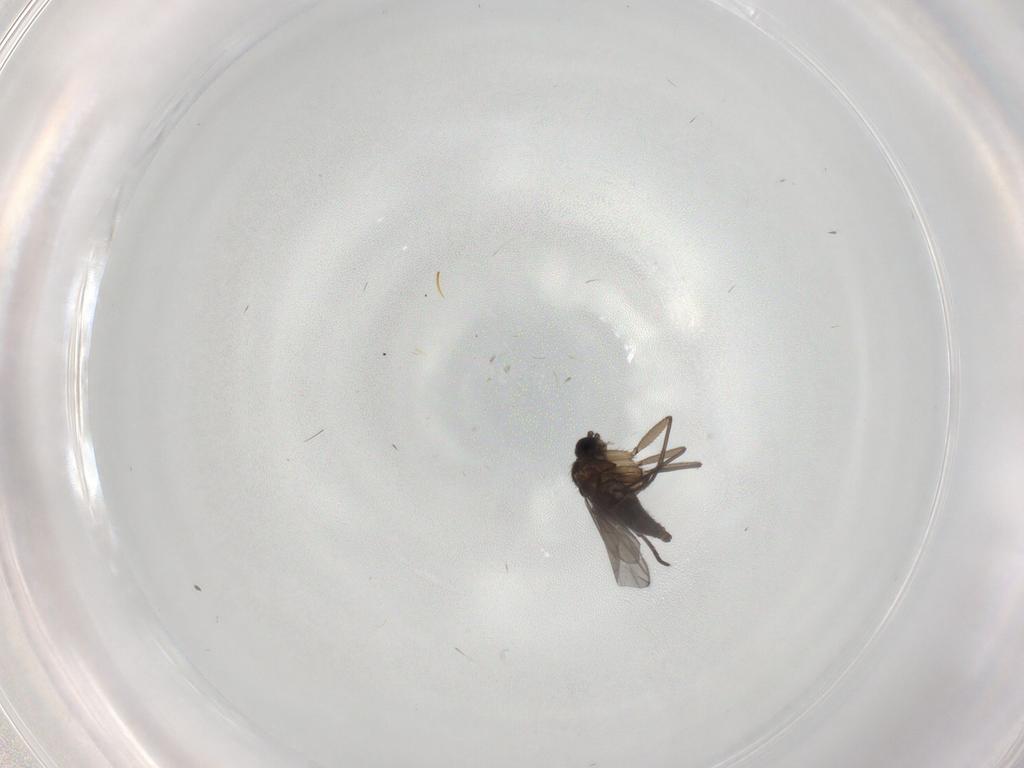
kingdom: Animalia
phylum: Arthropoda
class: Insecta
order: Diptera
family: Sciaridae
